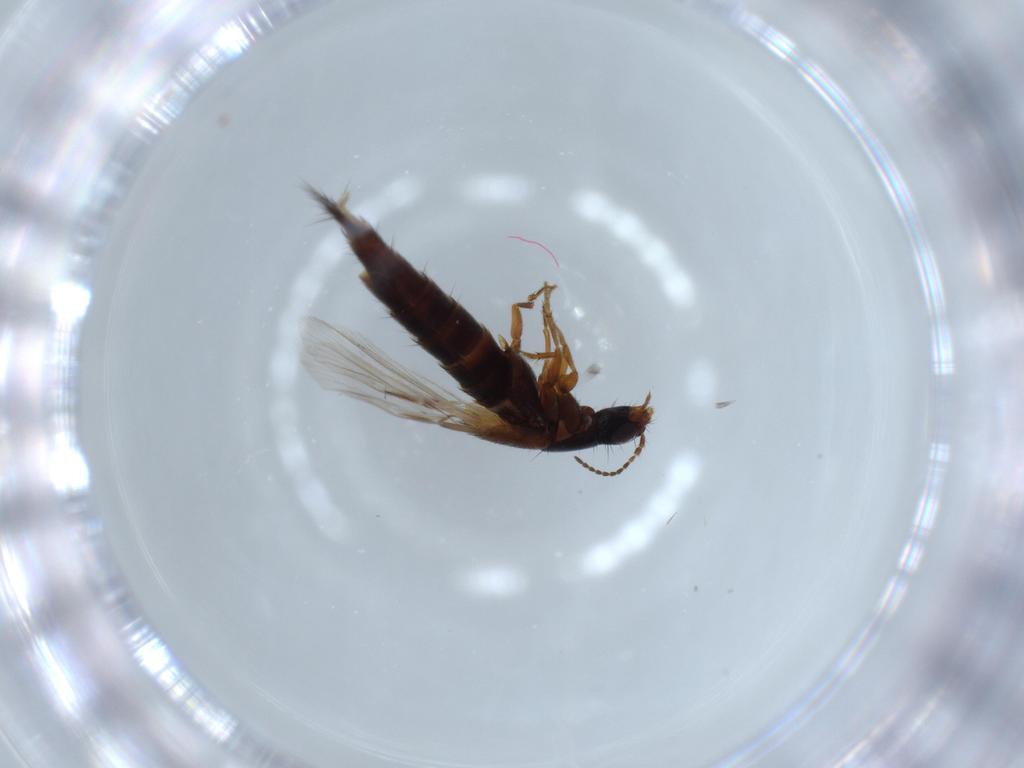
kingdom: Animalia
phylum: Arthropoda
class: Insecta
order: Coleoptera
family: Staphylinidae
